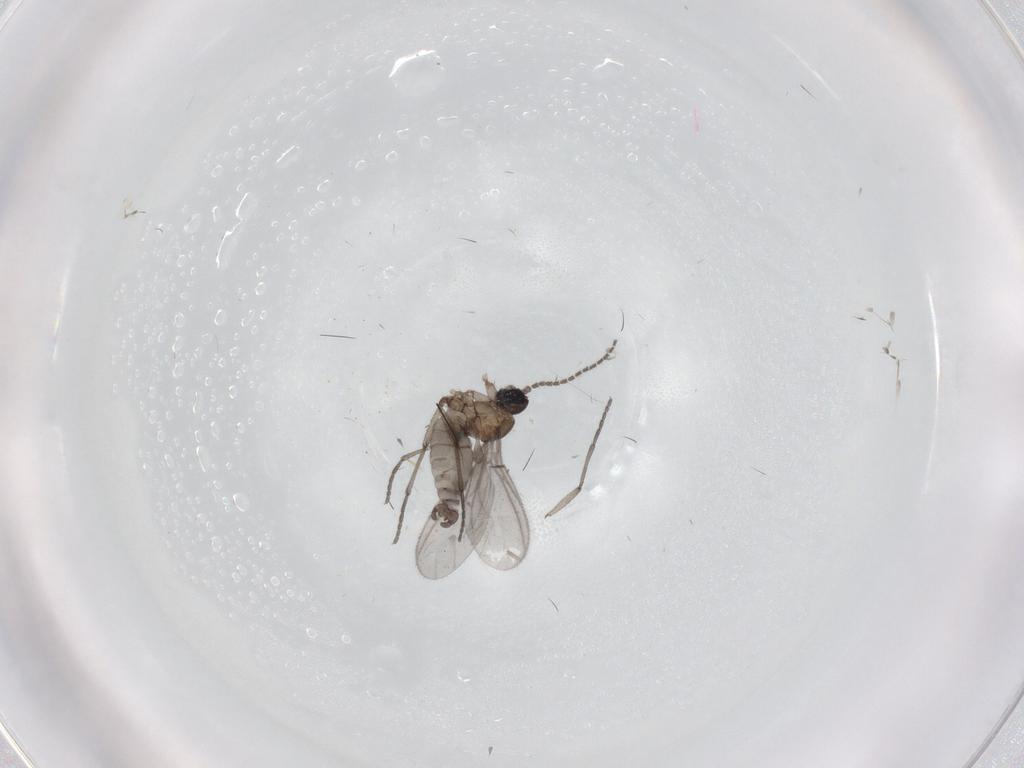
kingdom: Animalia
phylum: Arthropoda
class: Insecta
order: Diptera
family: Sciaridae
